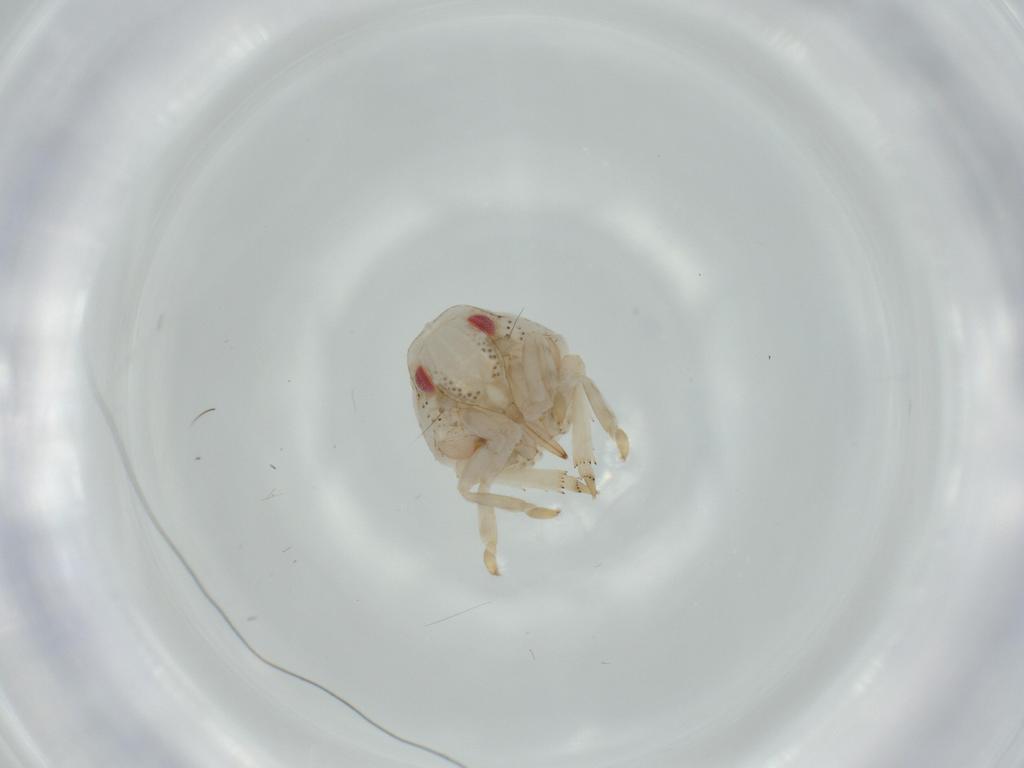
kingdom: Animalia
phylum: Arthropoda
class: Insecta
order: Hemiptera
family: Acanaloniidae
